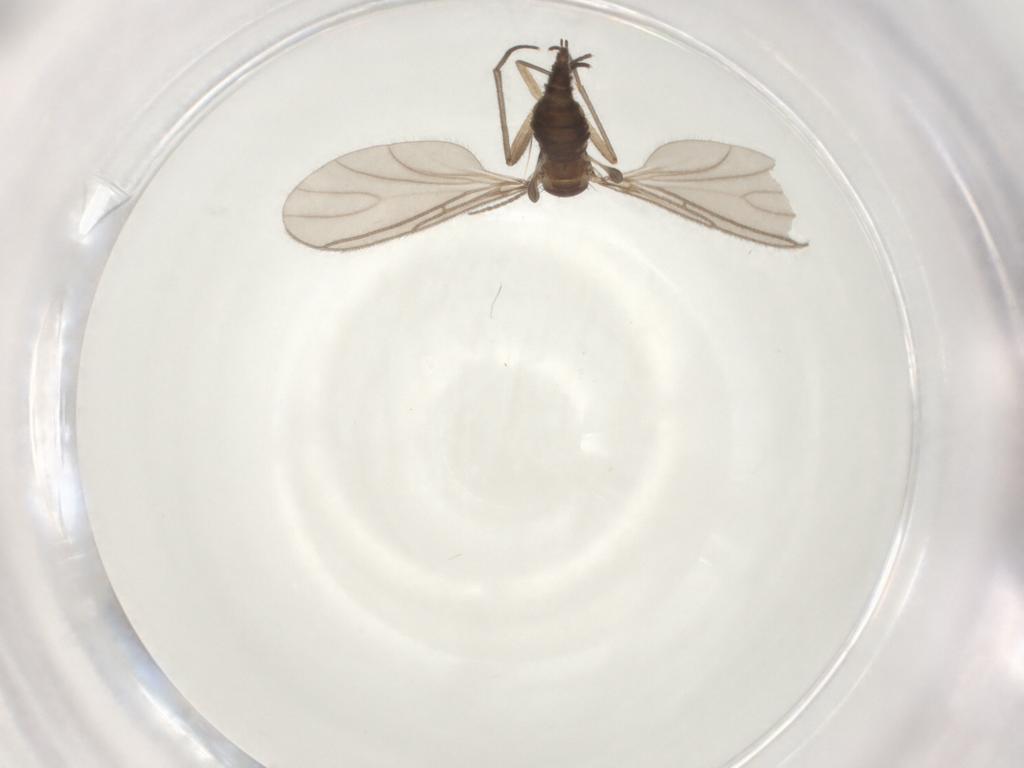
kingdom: Animalia
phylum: Arthropoda
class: Insecta
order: Diptera
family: Sciaridae
